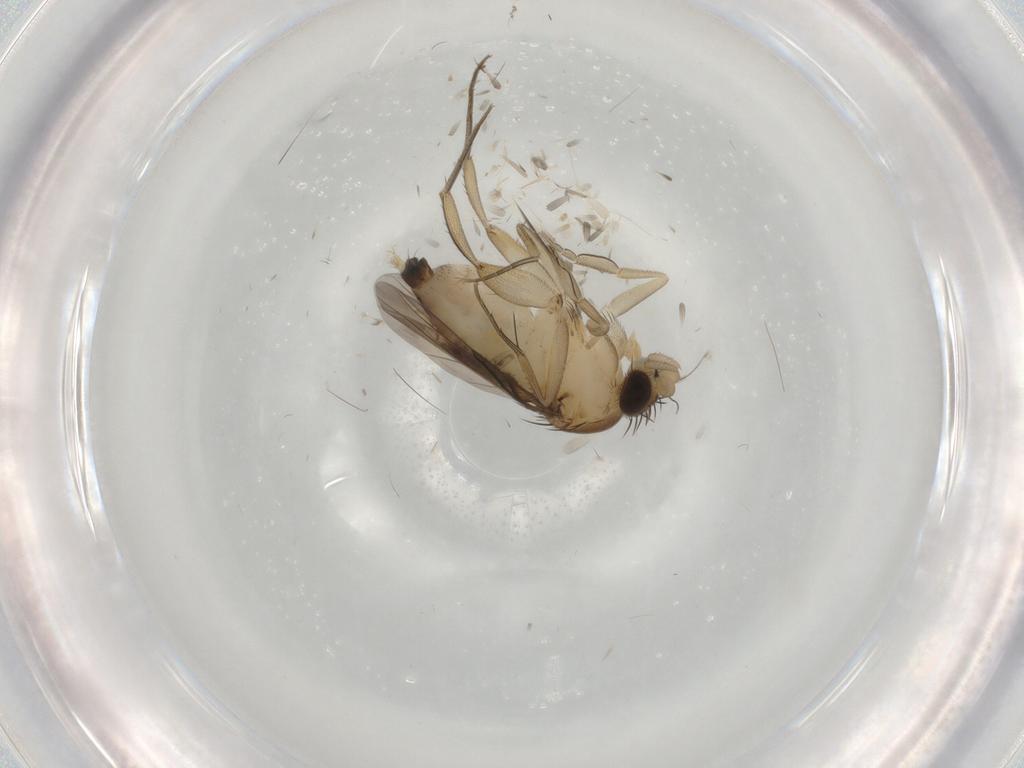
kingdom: Animalia
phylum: Arthropoda
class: Insecta
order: Diptera
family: Phoridae
